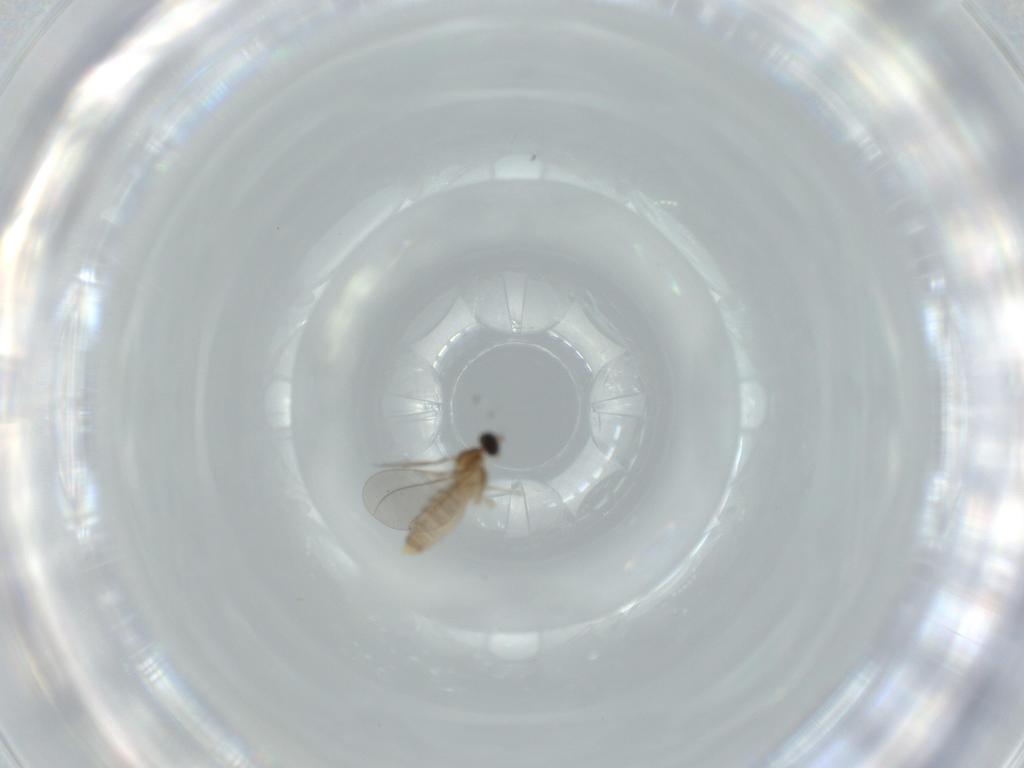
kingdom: Animalia
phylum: Arthropoda
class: Insecta
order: Diptera
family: Cecidomyiidae
